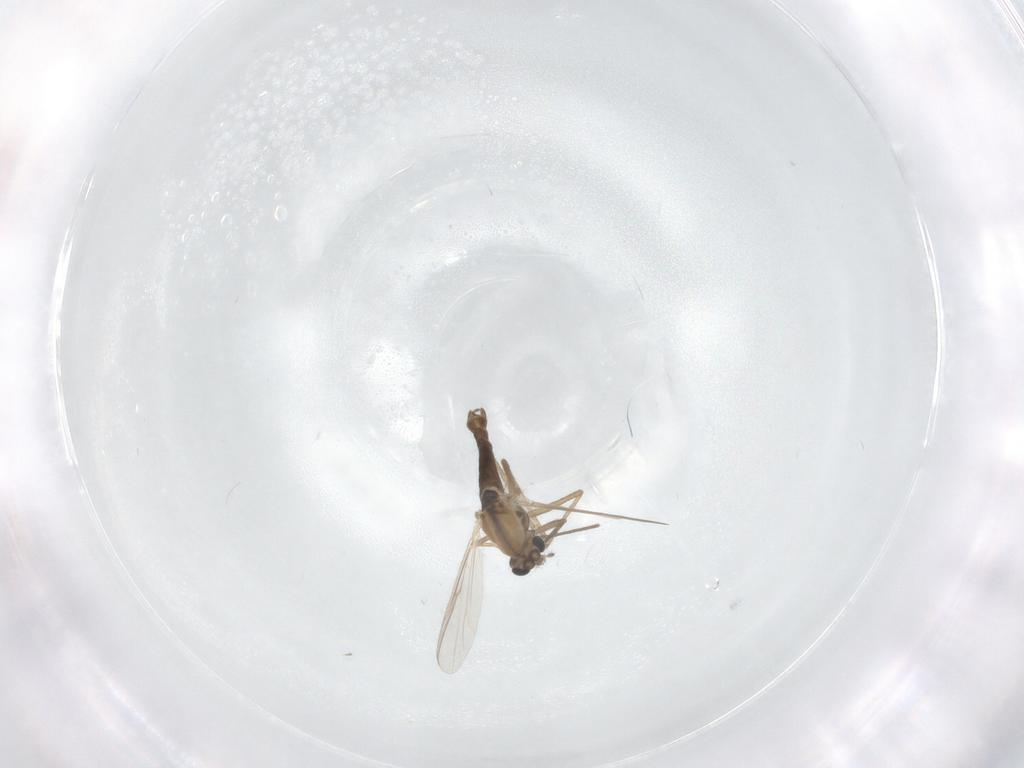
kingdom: Animalia
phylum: Arthropoda
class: Insecta
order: Diptera
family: Chironomidae
